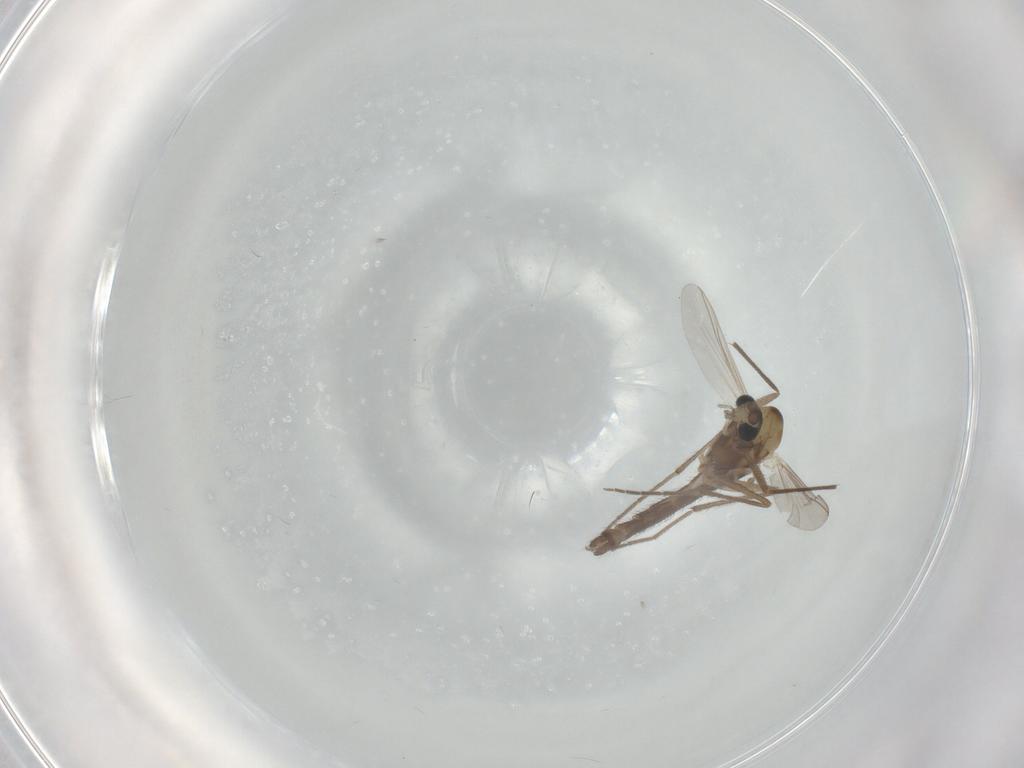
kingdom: Animalia
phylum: Arthropoda
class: Insecta
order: Diptera
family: Chironomidae
